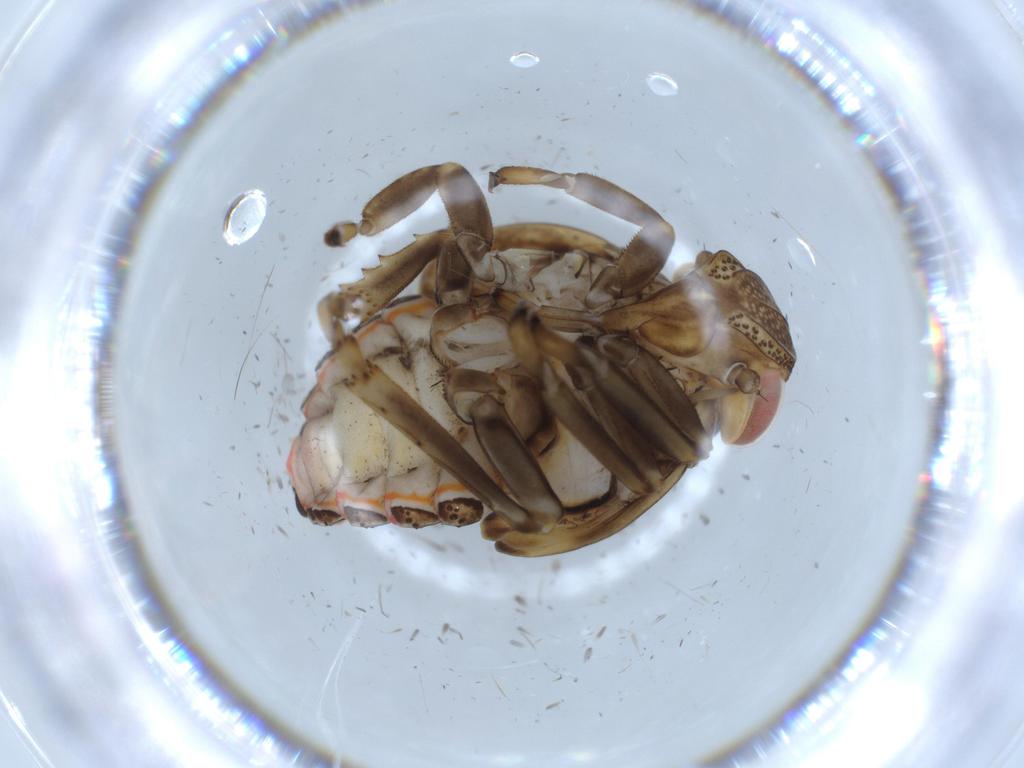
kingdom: Animalia
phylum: Arthropoda
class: Insecta
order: Hemiptera
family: Issidae
